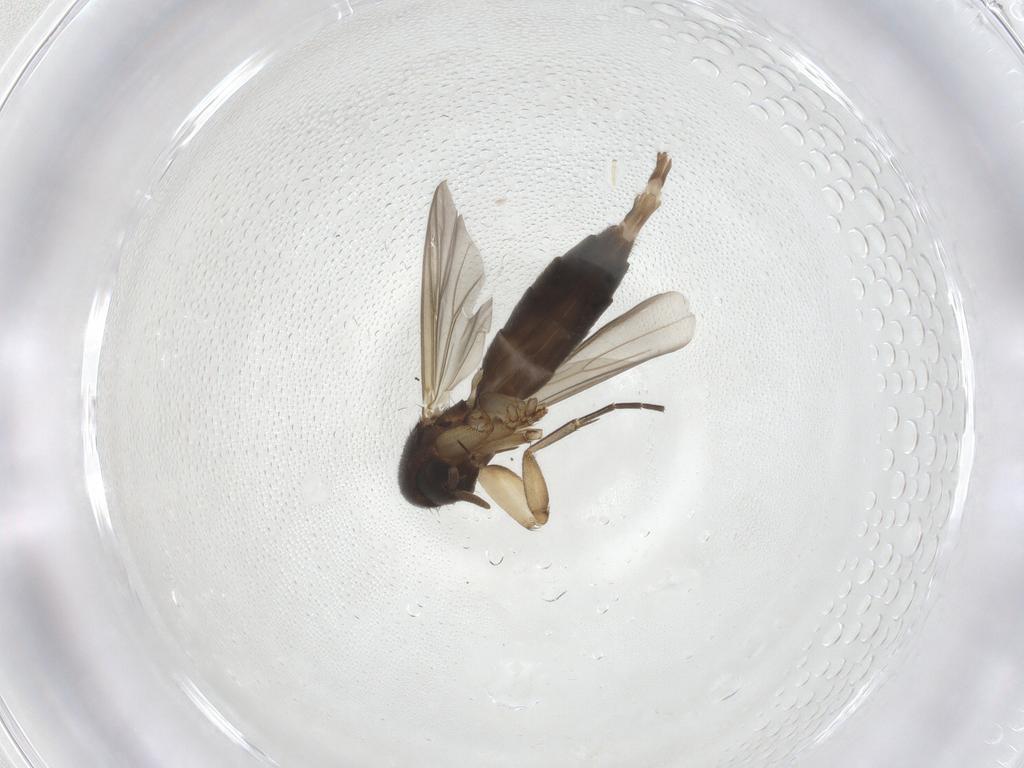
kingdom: Animalia
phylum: Arthropoda
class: Insecta
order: Diptera
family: Mycetophilidae
